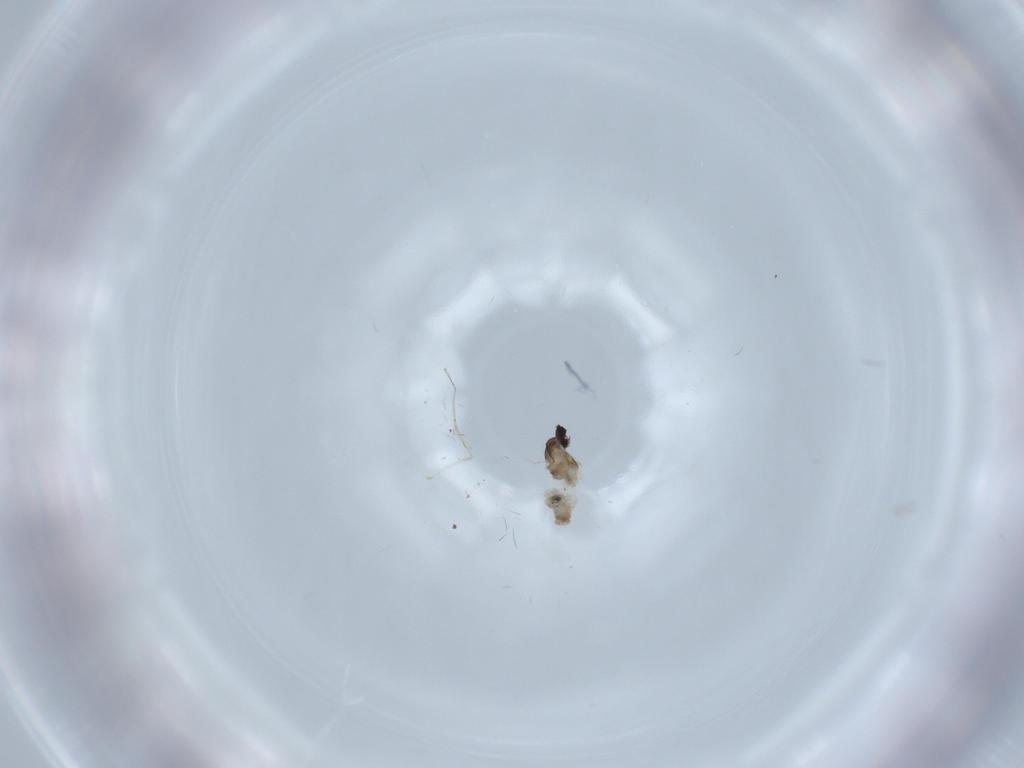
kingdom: Animalia
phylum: Arthropoda
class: Insecta
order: Diptera
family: Cecidomyiidae
